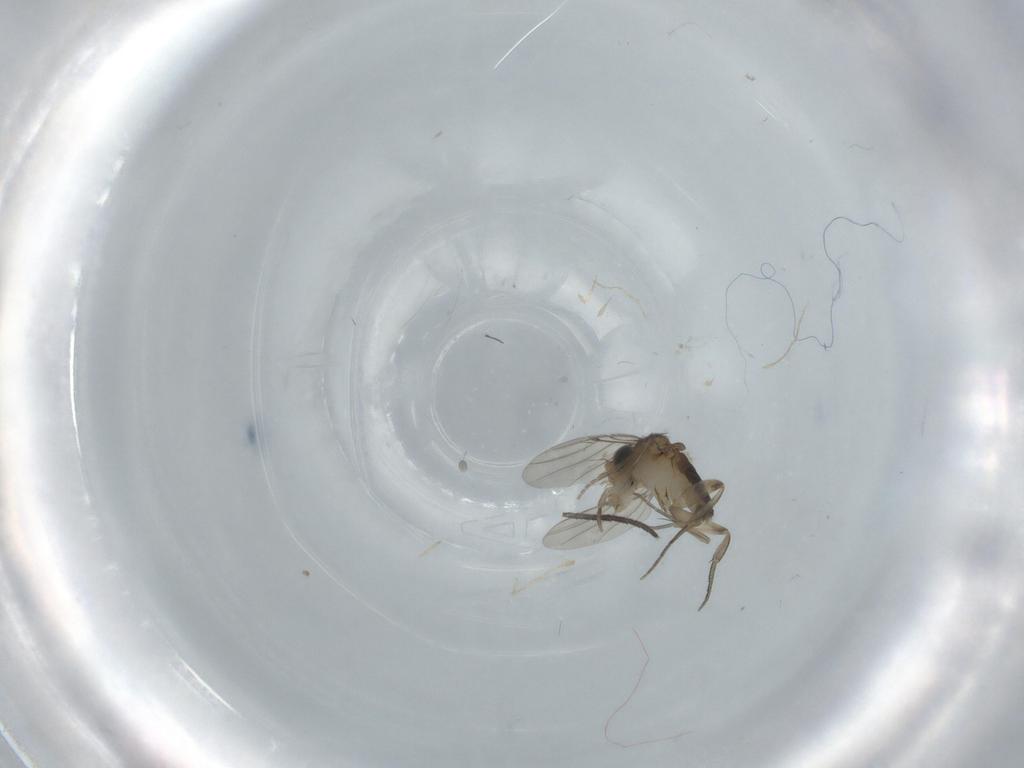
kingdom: Animalia
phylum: Arthropoda
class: Insecta
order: Diptera
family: Phoridae
